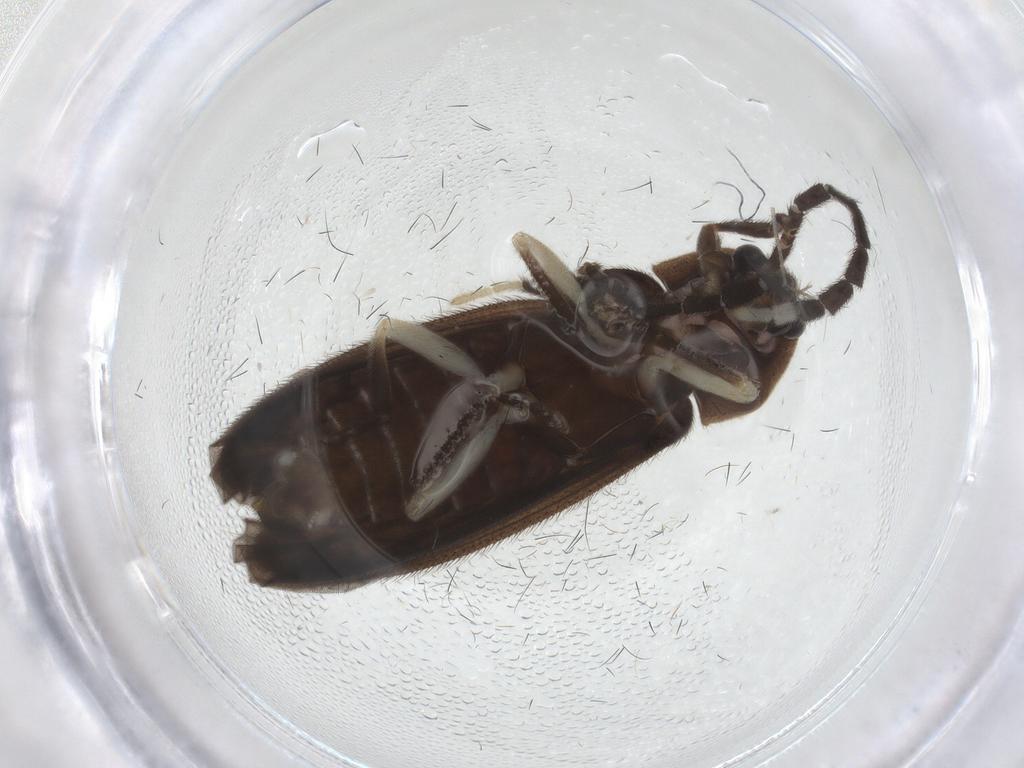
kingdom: Animalia
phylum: Arthropoda
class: Insecta
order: Coleoptera
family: Lampyridae
